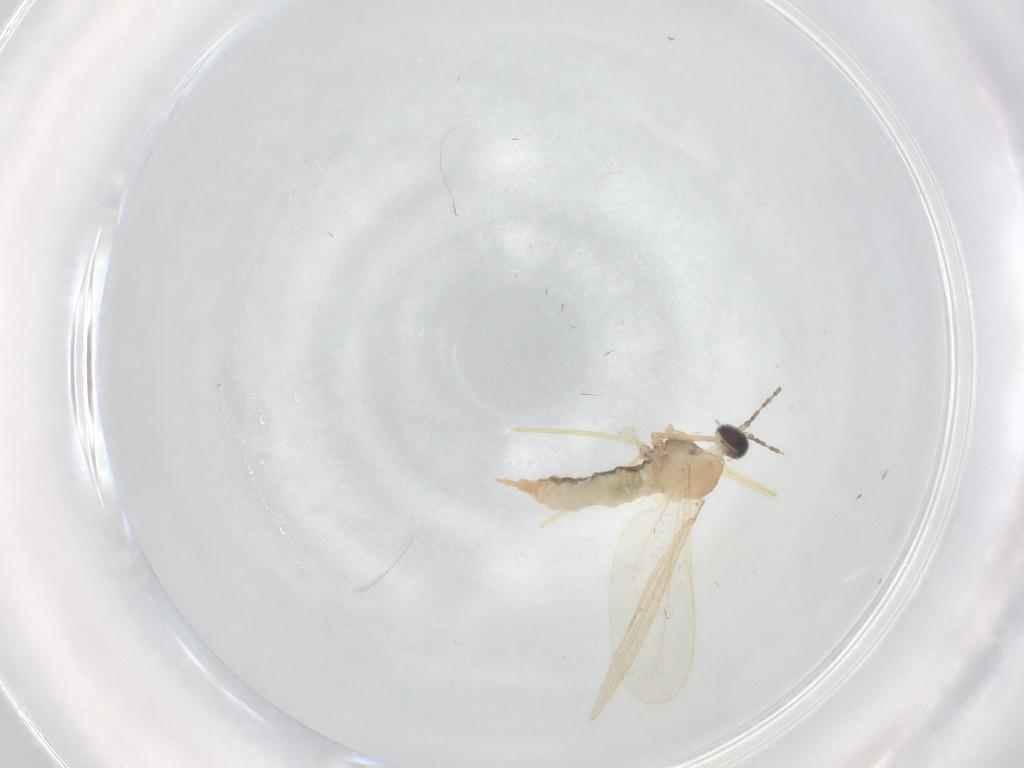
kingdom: Animalia
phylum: Arthropoda
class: Insecta
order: Diptera
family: Cecidomyiidae
